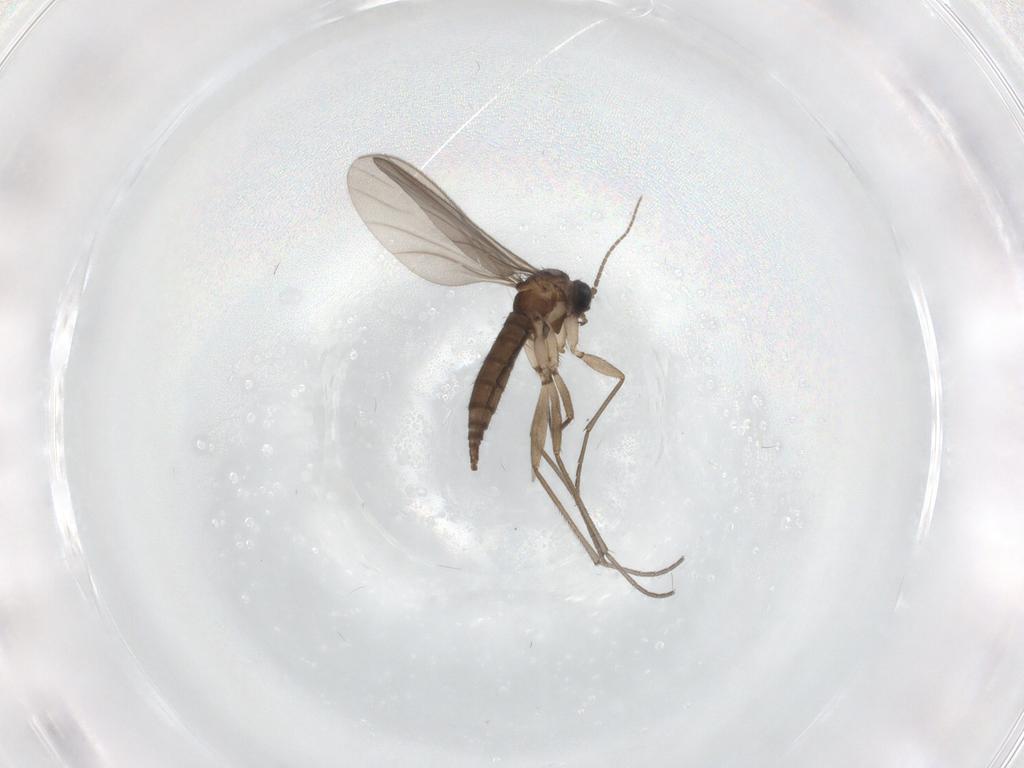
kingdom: Animalia
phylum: Arthropoda
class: Insecta
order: Diptera
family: Sciaridae
